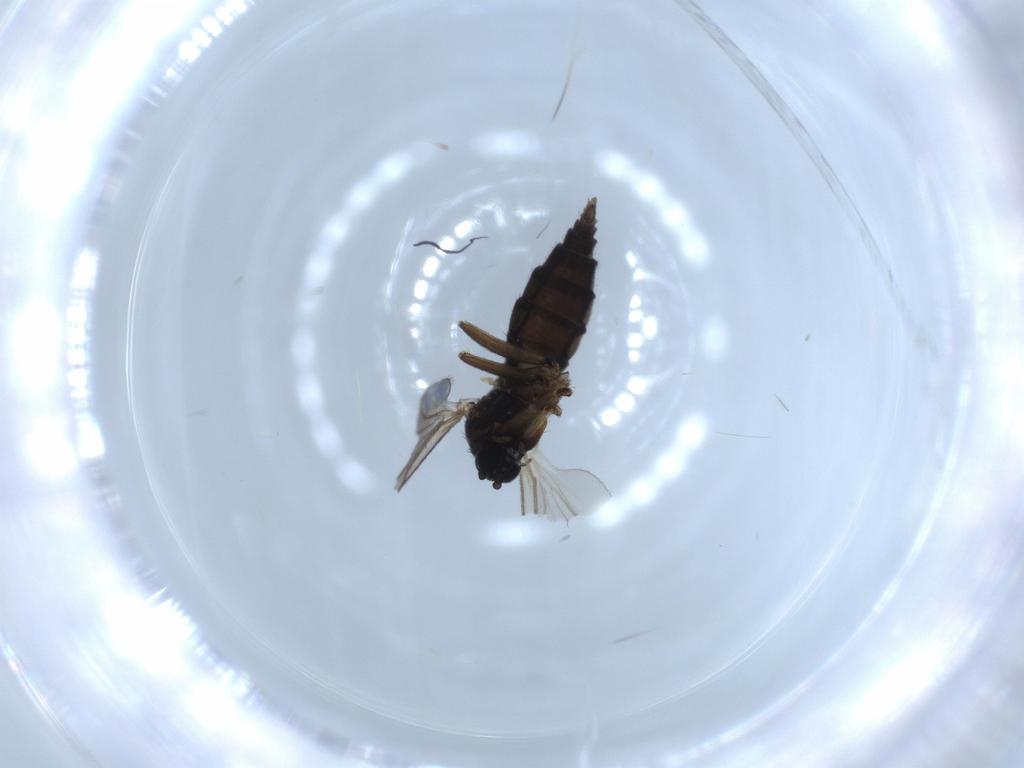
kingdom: Animalia
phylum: Arthropoda
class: Insecta
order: Diptera
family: Sciaridae
